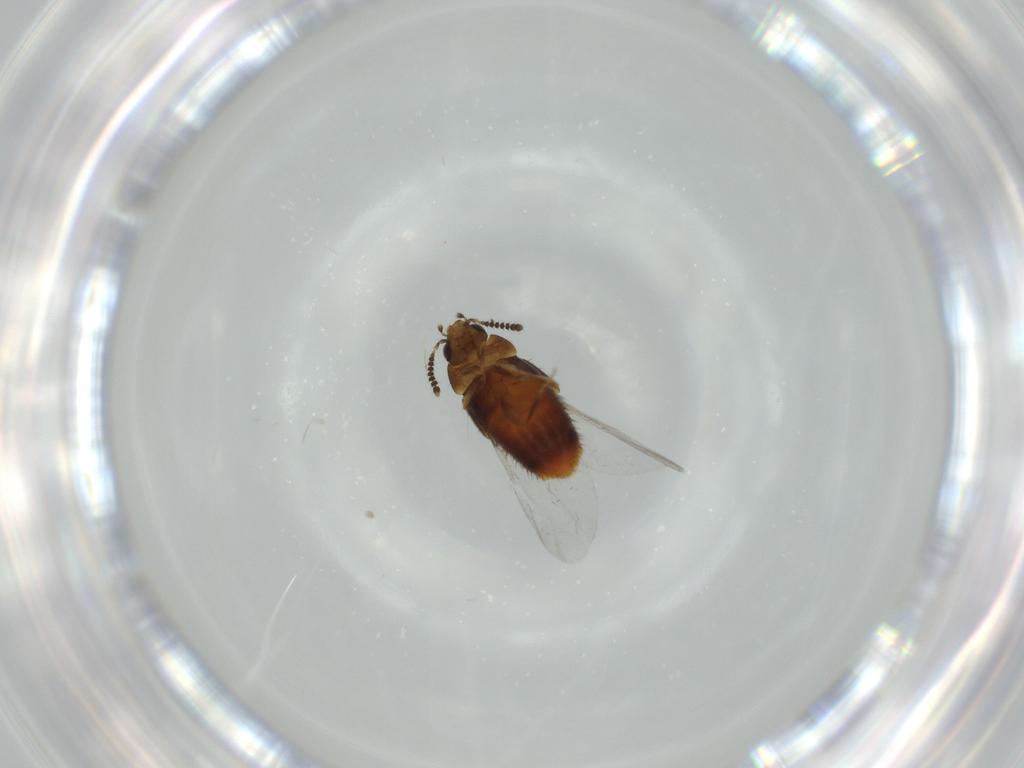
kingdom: Animalia
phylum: Arthropoda
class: Insecta
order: Coleoptera
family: Staphylinidae
